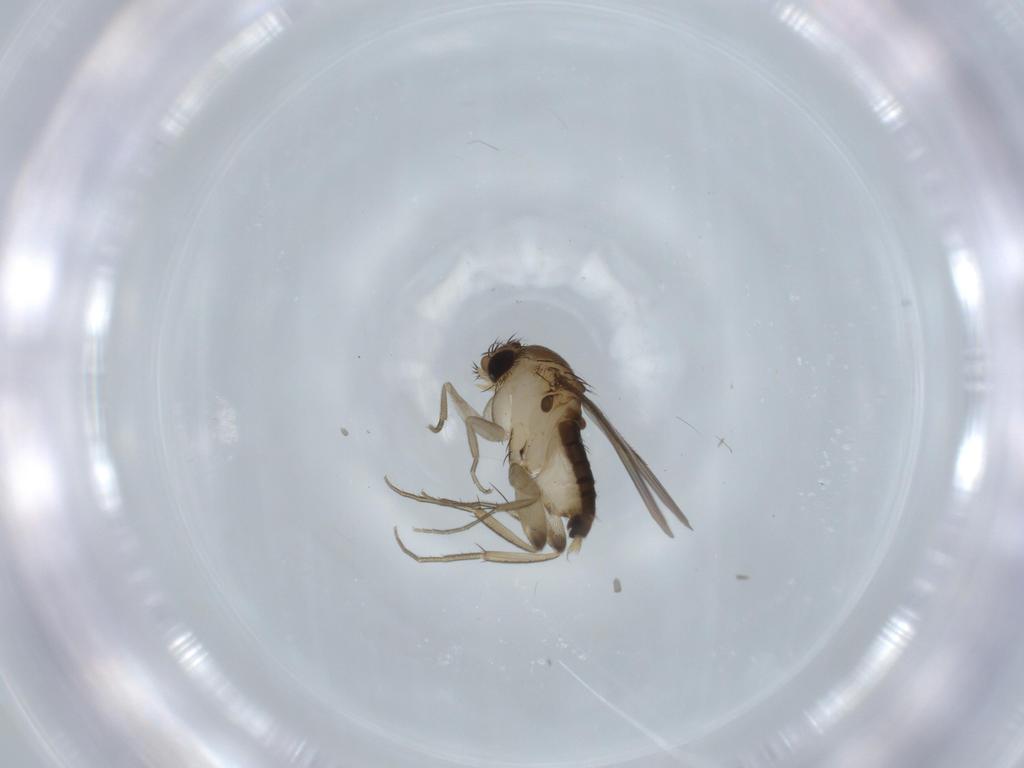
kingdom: Animalia
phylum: Arthropoda
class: Insecta
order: Diptera
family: Phoridae
